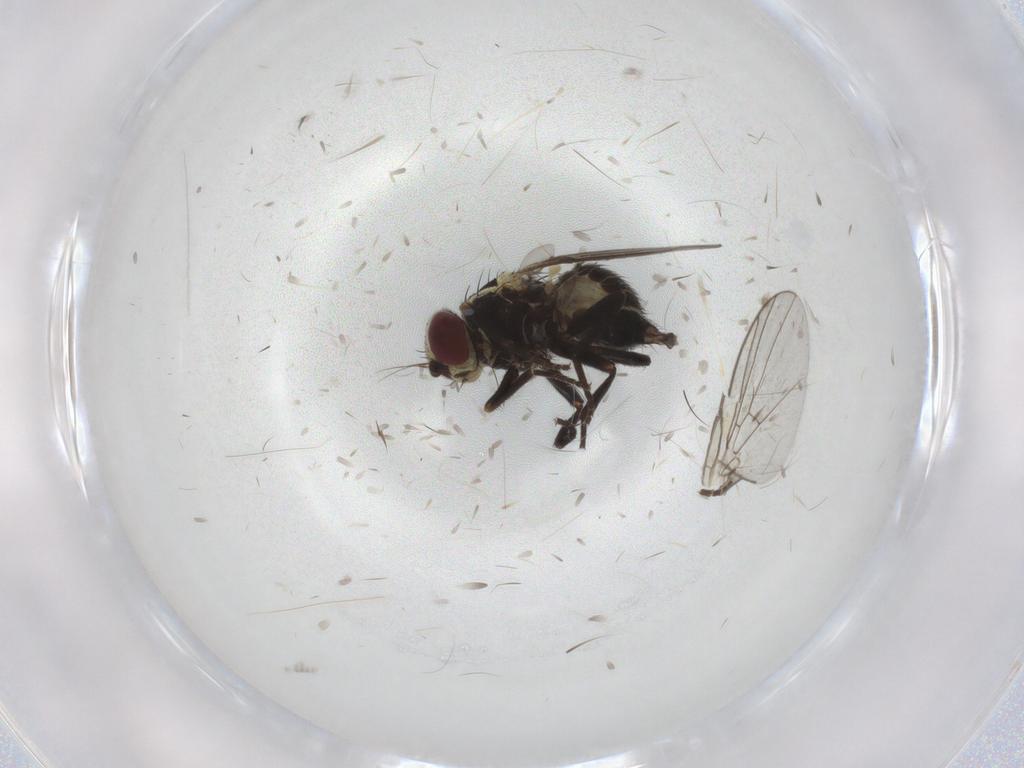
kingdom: Animalia
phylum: Arthropoda
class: Insecta
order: Diptera
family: Agromyzidae
